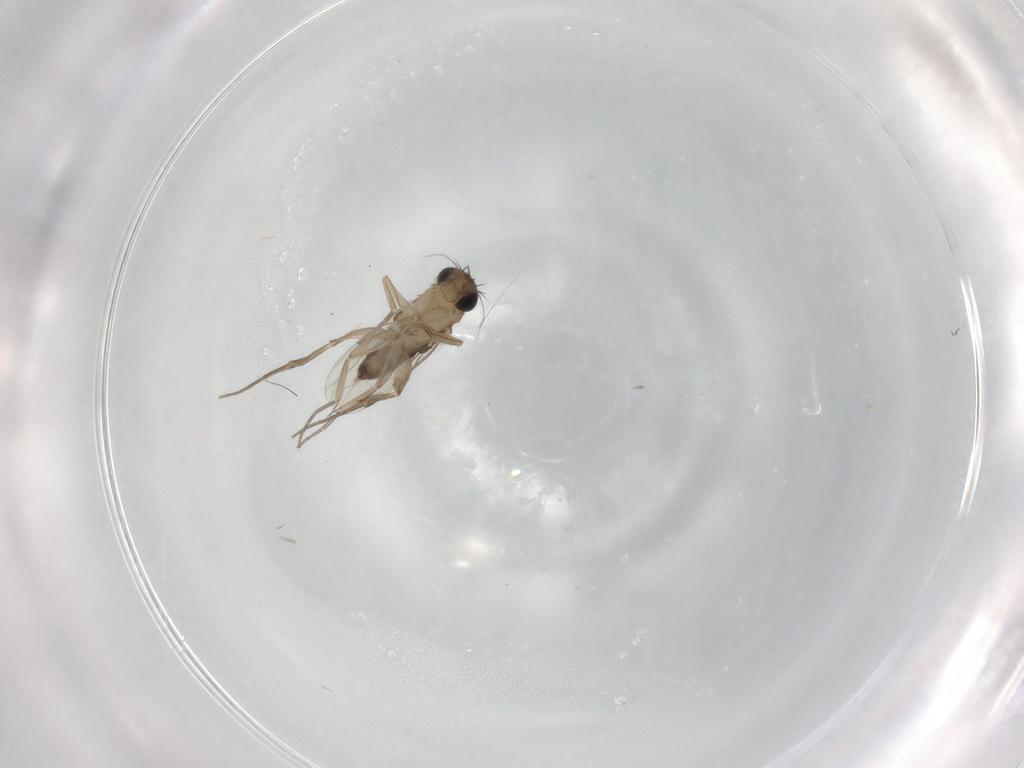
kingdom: Animalia
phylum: Arthropoda
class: Insecta
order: Diptera
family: Phoridae
